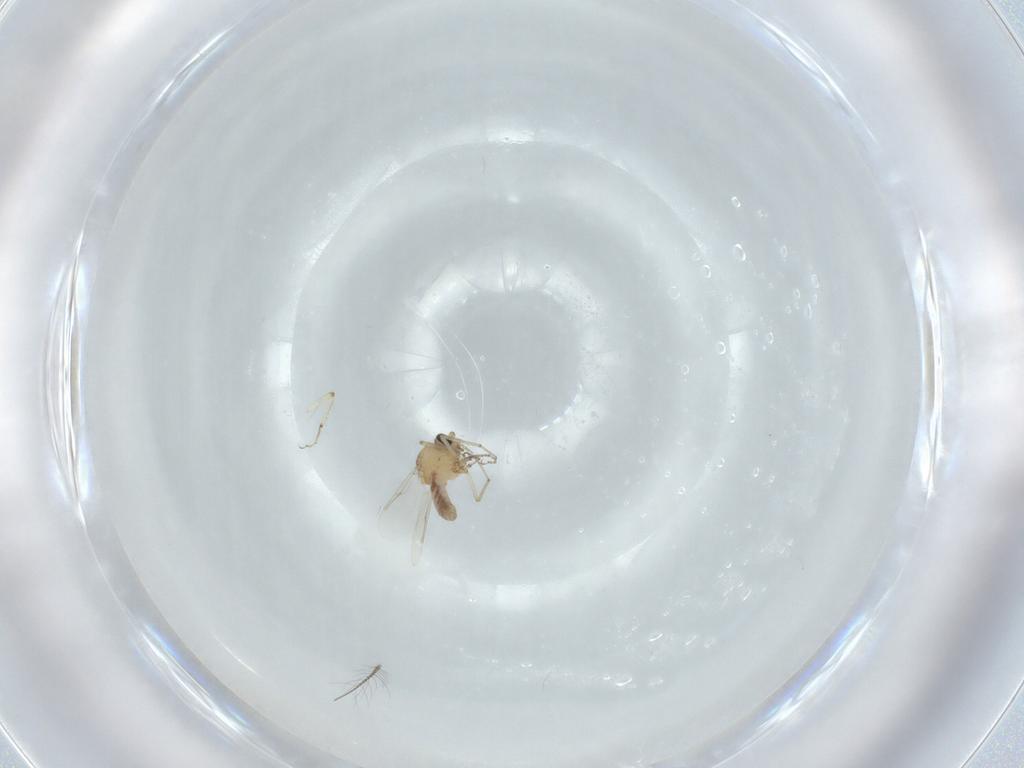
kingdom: Animalia
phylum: Arthropoda
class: Insecta
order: Diptera
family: Ceratopogonidae
